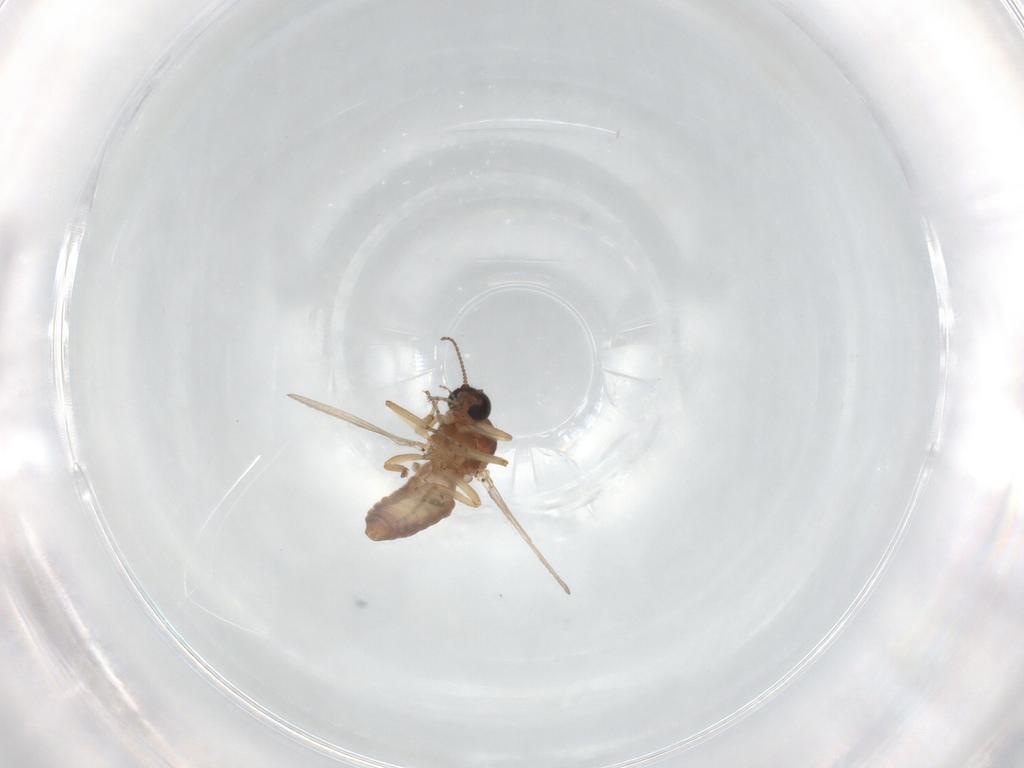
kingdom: Animalia
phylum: Arthropoda
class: Insecta
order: Diptera
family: Ceratopogonidae
